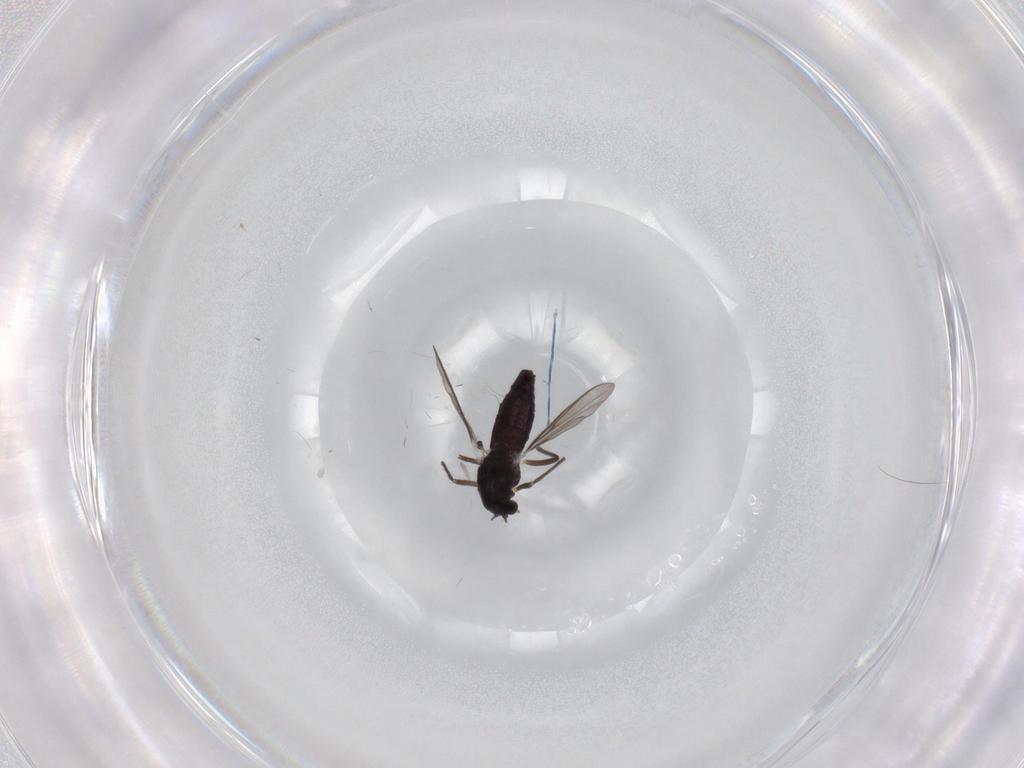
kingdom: Animalia
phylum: Arthropoda
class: Insecta
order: Diptera
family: Chironomidae
